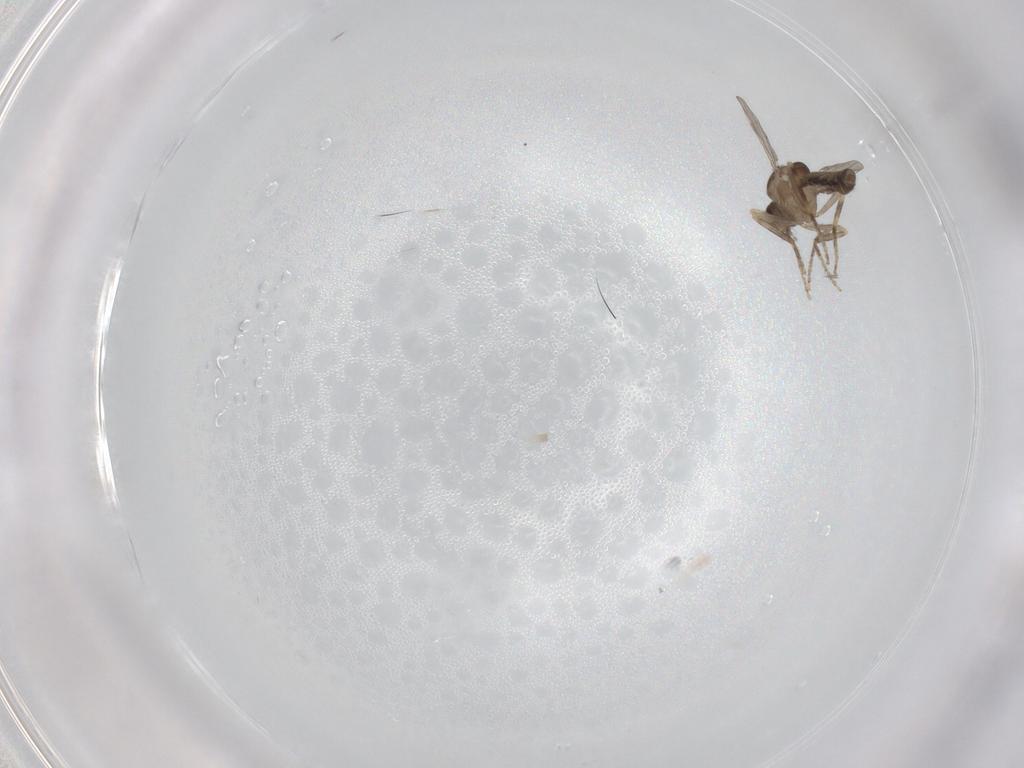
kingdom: Animalia
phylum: Arthropoda
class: Insecta
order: Diptera
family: Ceratopogonidae
